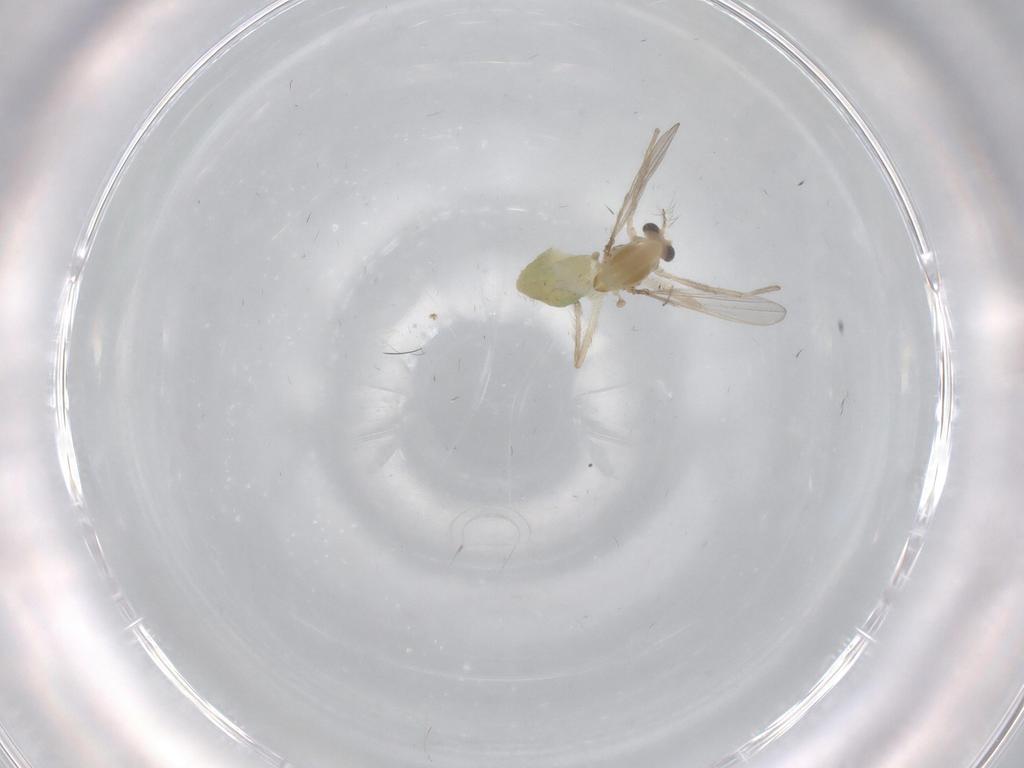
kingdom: Animalia
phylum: Arthropoda
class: Insecta
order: Diptera
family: Chironomidae
